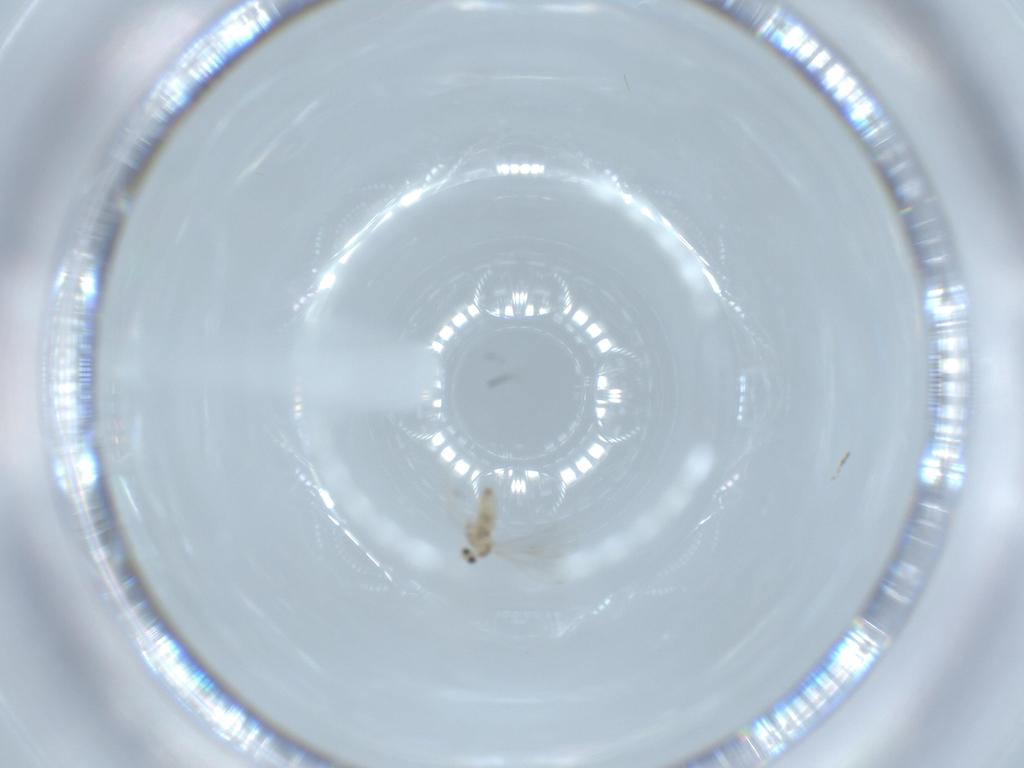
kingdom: Animalia
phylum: Arthropoda
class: Insecta
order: Diptera
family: Cecidomyiidae
